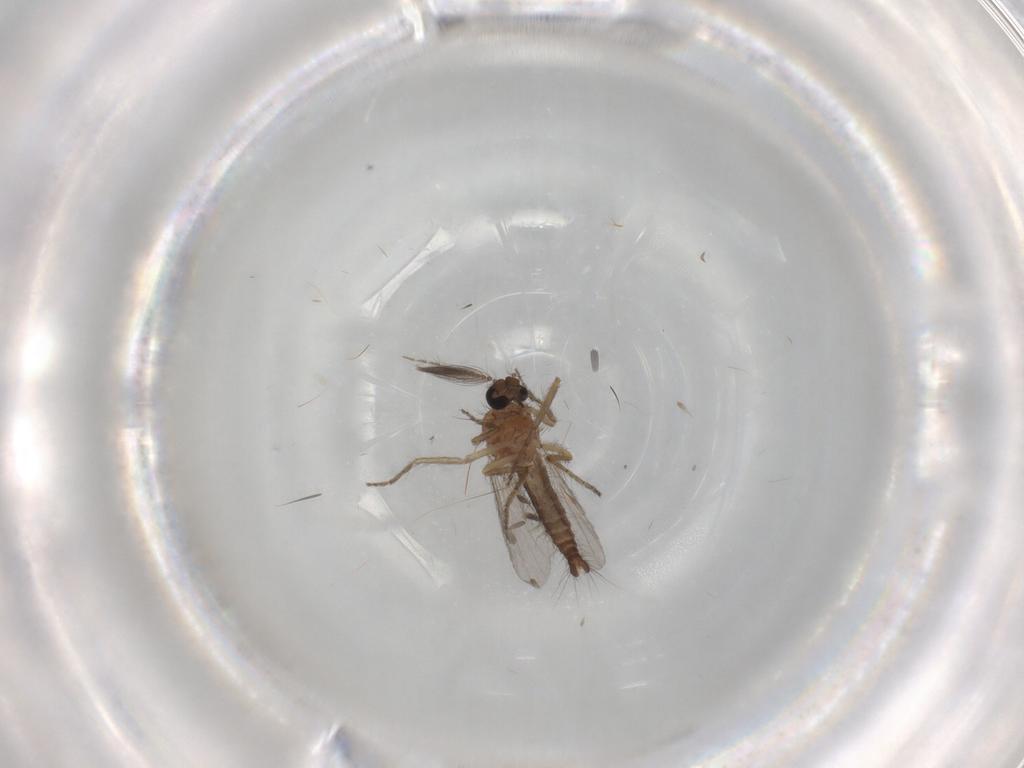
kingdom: Animalia
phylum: Arthropoda
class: Insecta
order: Diptera
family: Ceratopogonidae
